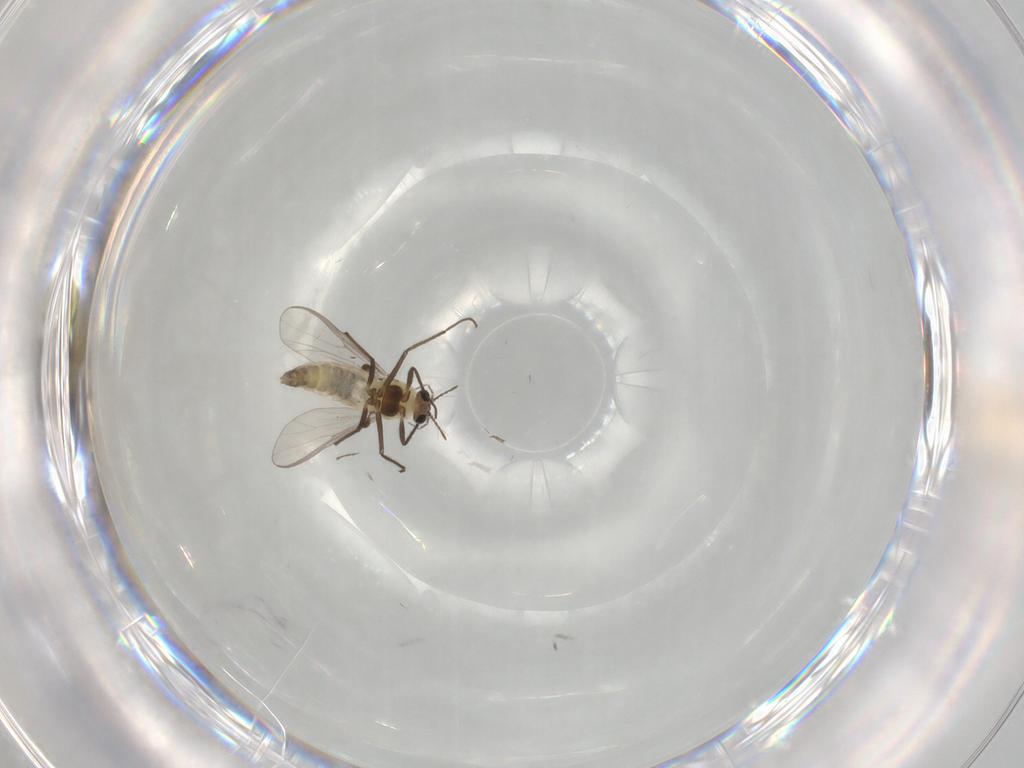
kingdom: Animalia
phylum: Arthropoda
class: Insecta
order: Diptera
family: Chironomidae
